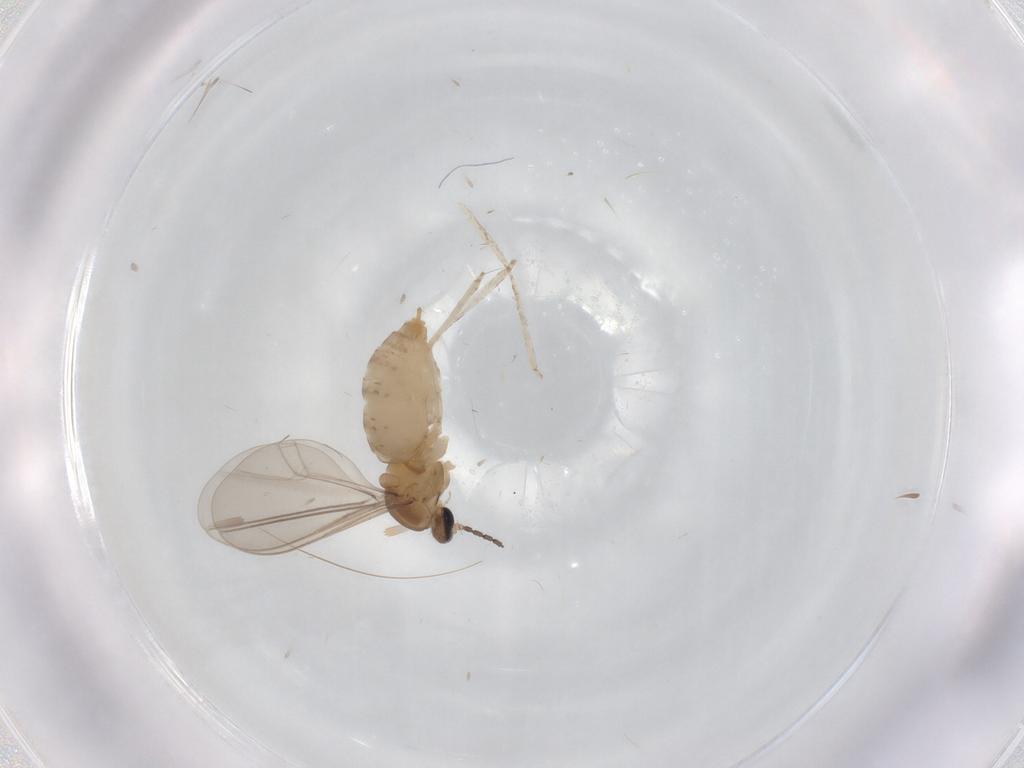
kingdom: Animalia
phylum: Arthropoda
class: Insecta
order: Diptera
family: Cecidomyiidae
